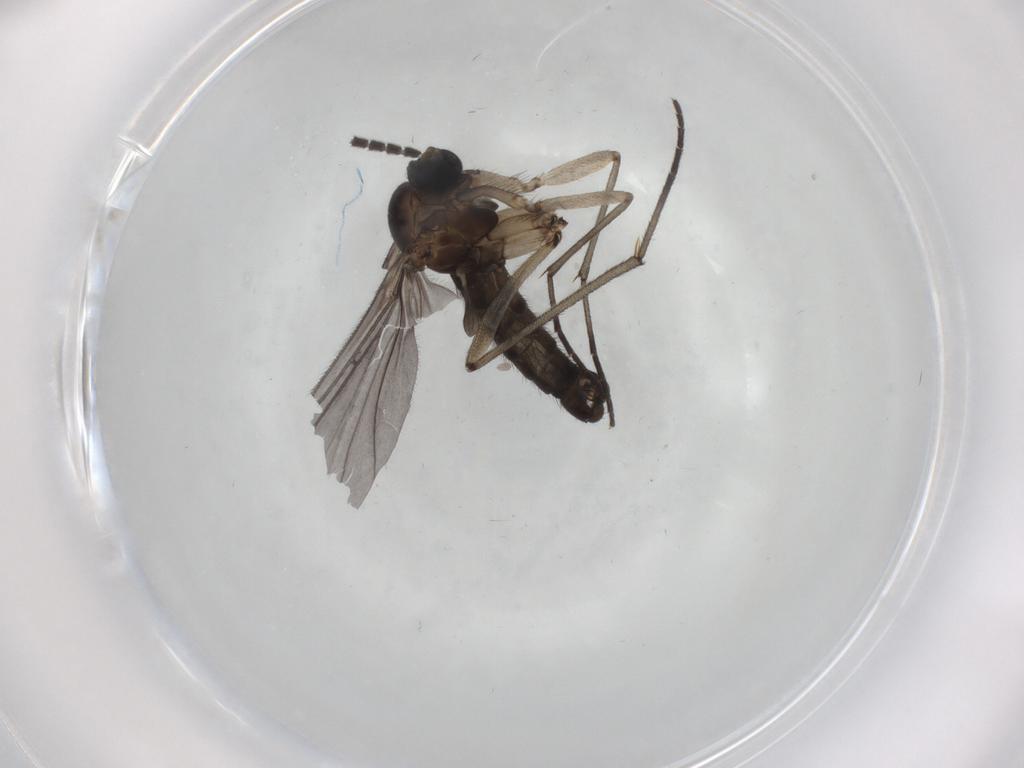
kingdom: Animalia
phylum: Arthropoda
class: Insecta
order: Diptera
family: Sciaridae
